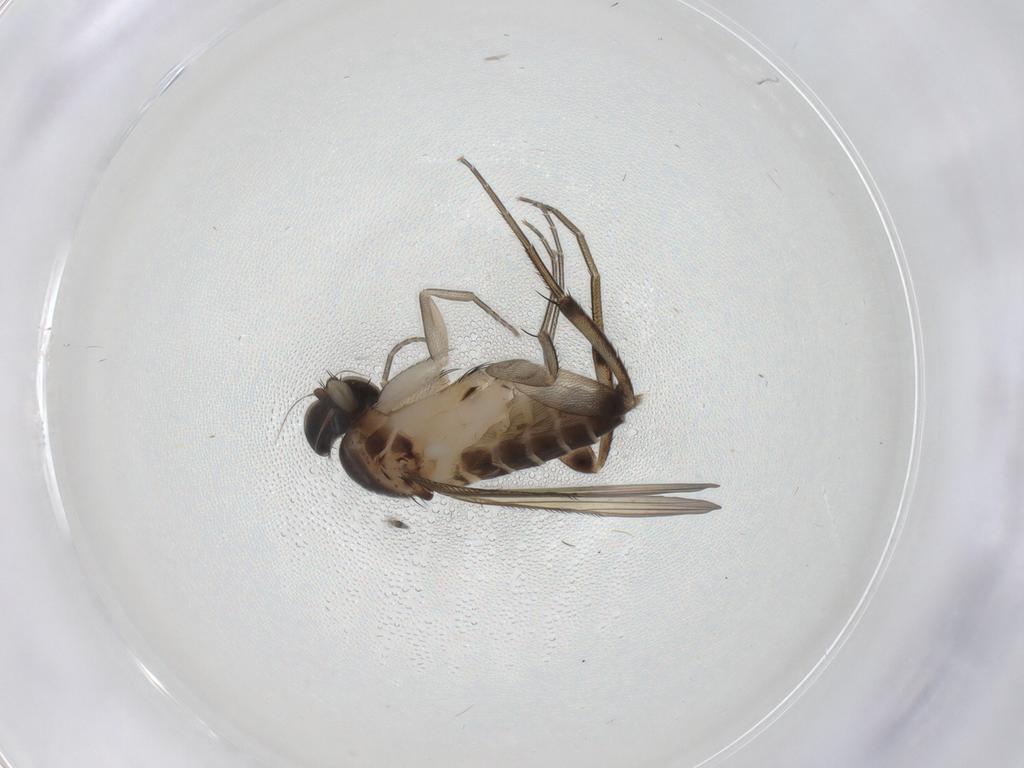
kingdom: Animalia
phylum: Arthropoda
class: Insecta
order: Diptera
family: Phoridae
